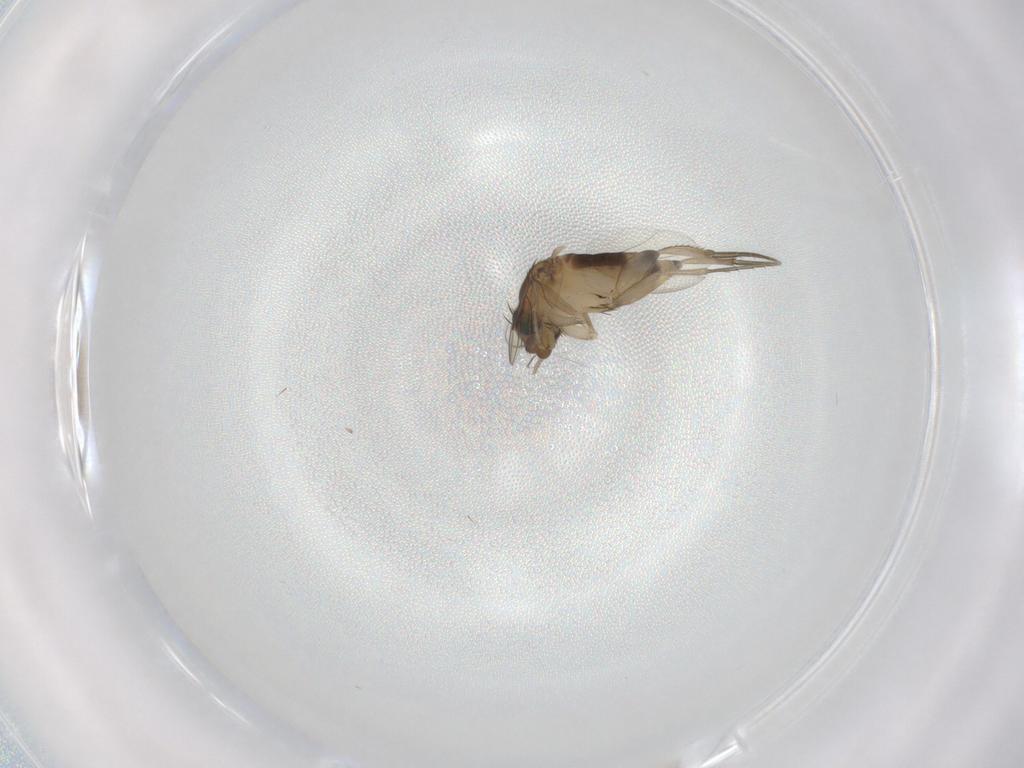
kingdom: Animalia
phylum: Arthropoda
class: Insecta
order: Diptera
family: Phoridae
